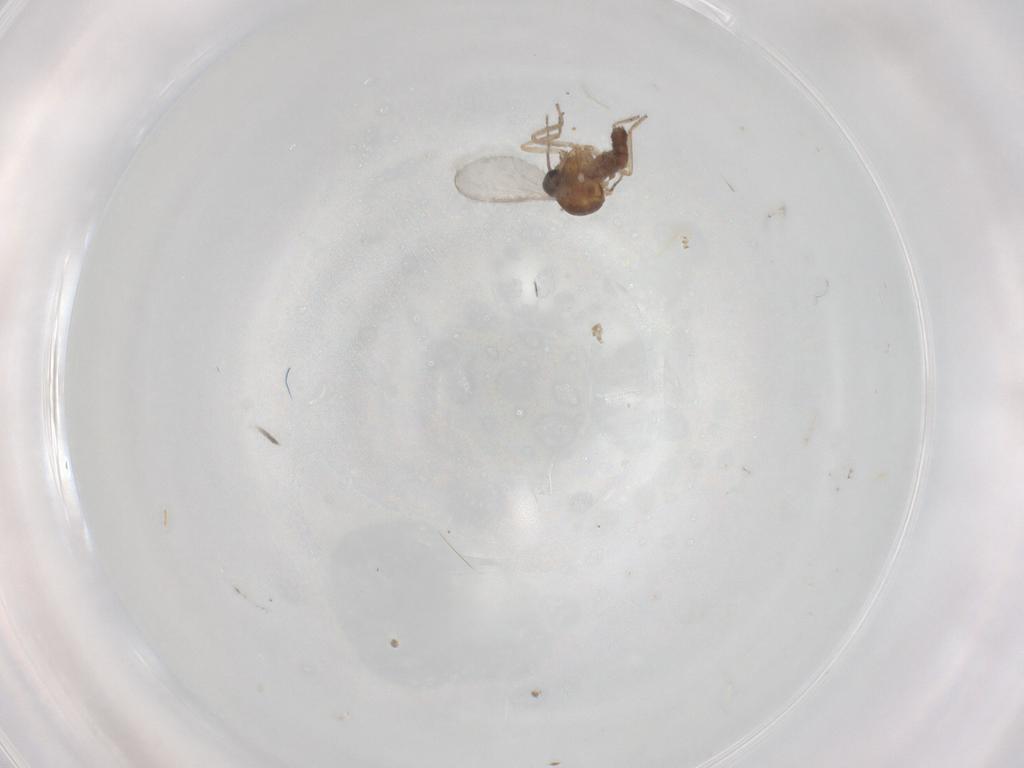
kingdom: Animalia
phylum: Arthropoda
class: Insecta
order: Diptera
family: Ceratopogonidae
